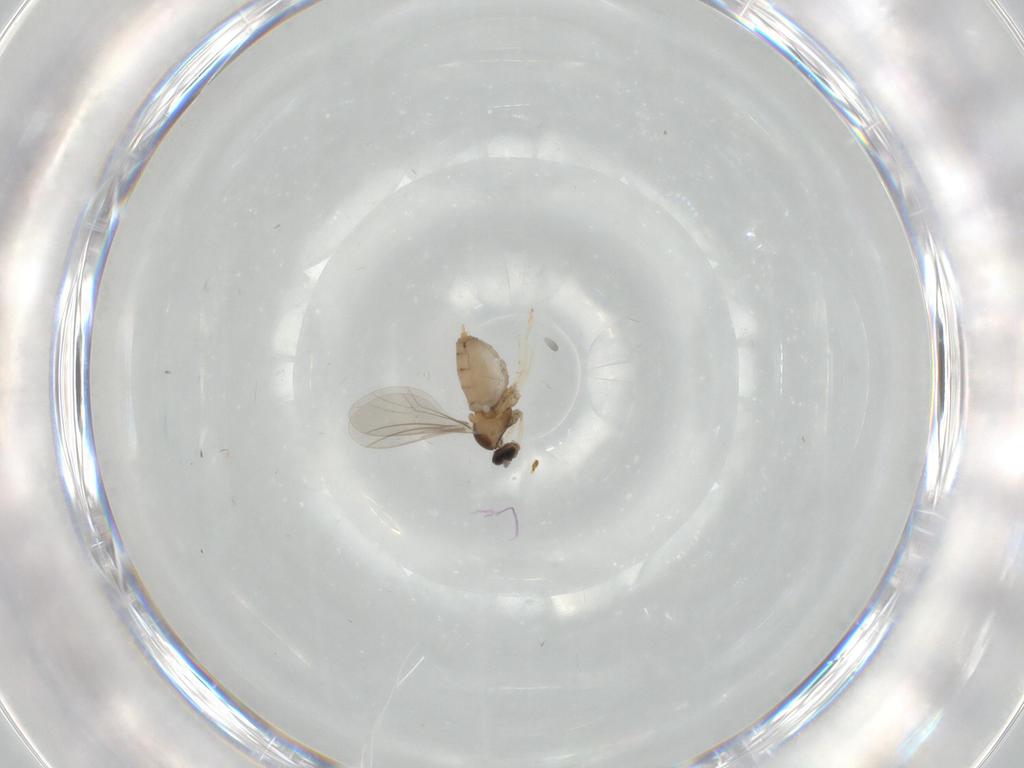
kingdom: Animalia
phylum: Arthropoda
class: Insecta
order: Diptera
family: Cecidomyiidae
